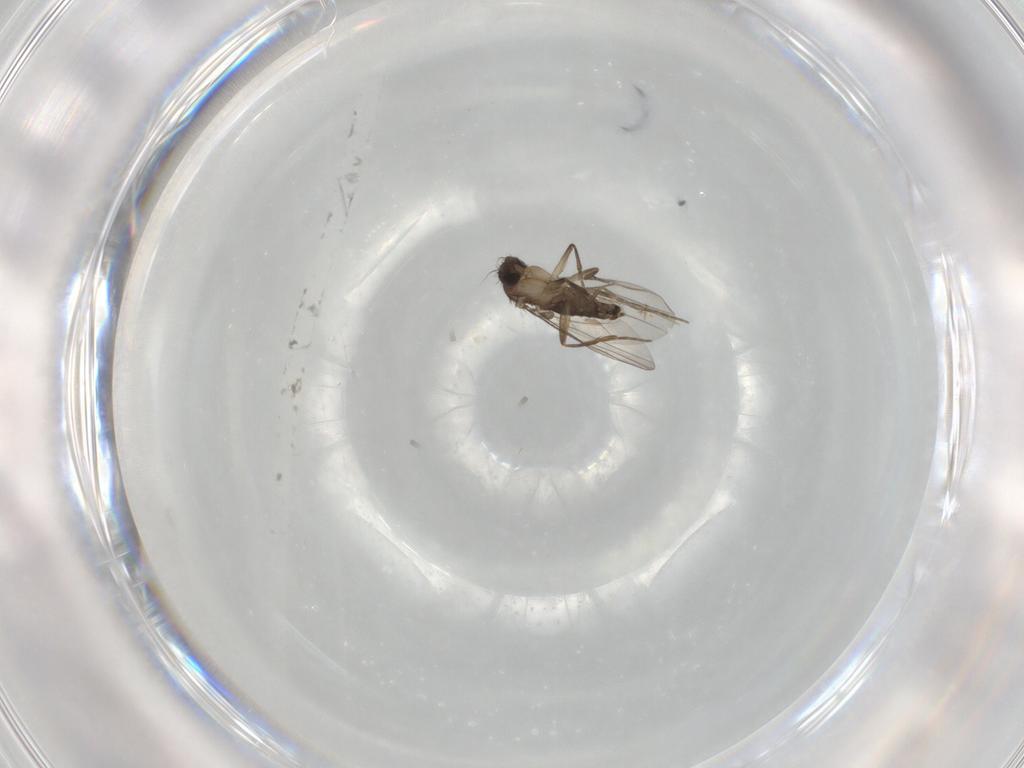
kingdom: Animalia
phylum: Arthropoda
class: Insecta
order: Diptera
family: Phoridae
